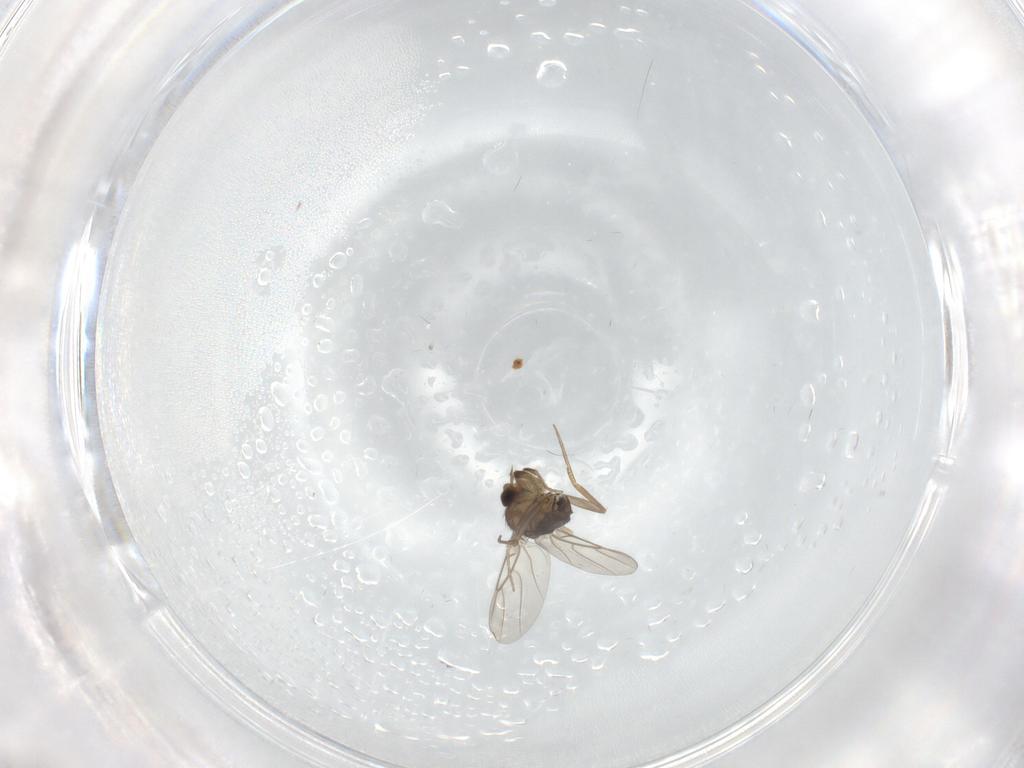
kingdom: Animalia
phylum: Arthropoda
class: Insecta
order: Diptera
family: Phoridae
